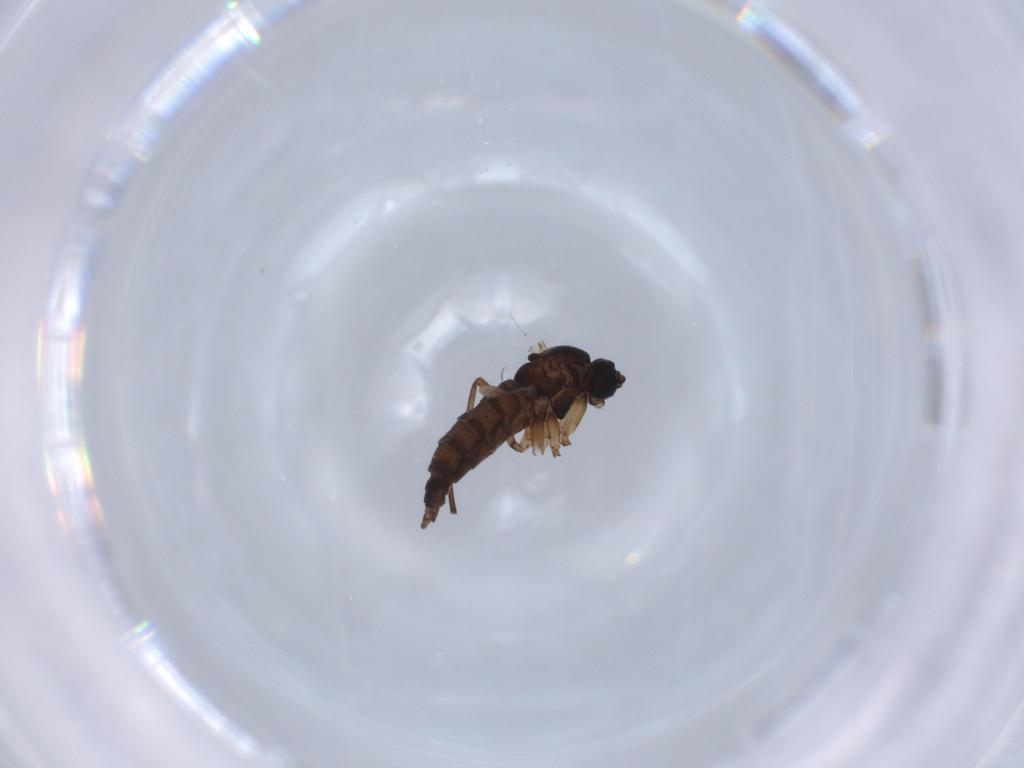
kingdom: Animalia
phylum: Arthropoda
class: Insecta
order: Diptera
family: Sciaridae
